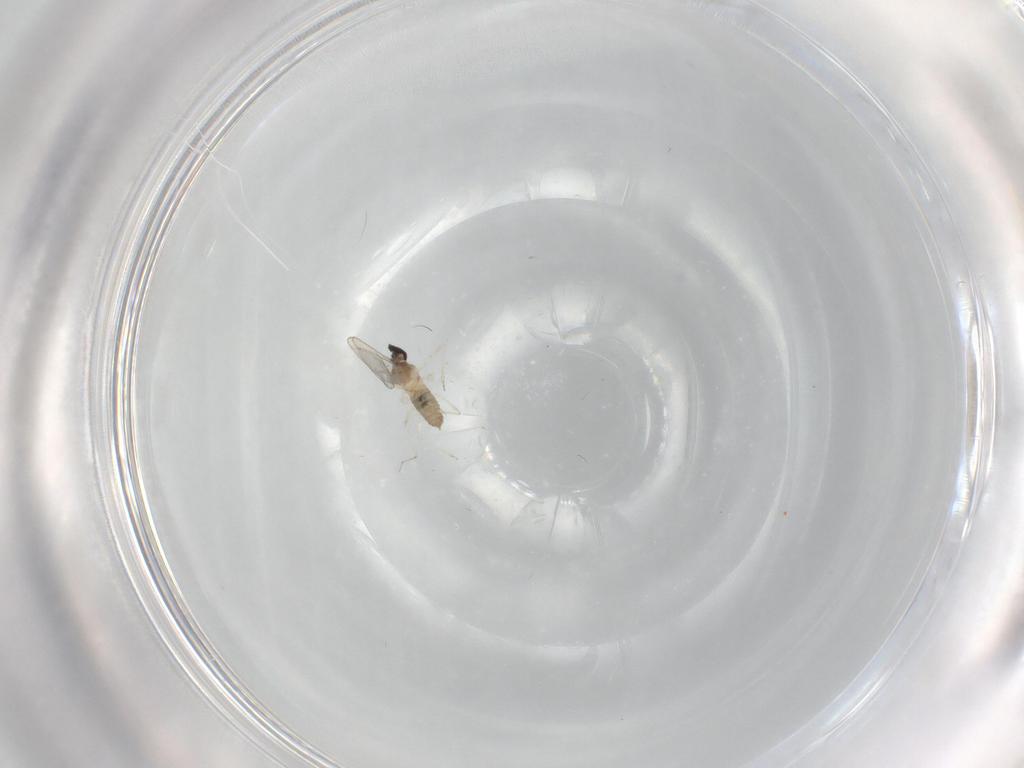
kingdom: Animalia
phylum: Arthropoda
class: Insecta
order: Diptera
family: Cecidomyiidae
